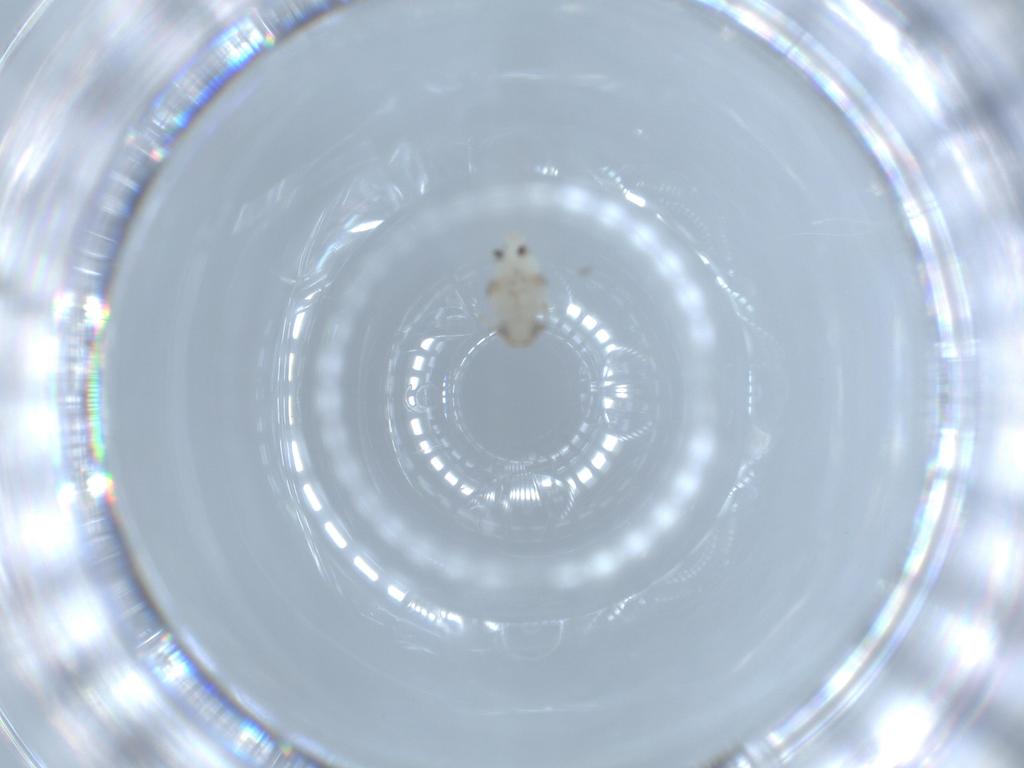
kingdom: Animalia
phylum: Arthropoda
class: Insecta
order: Hemiptera
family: Nogodinidae
